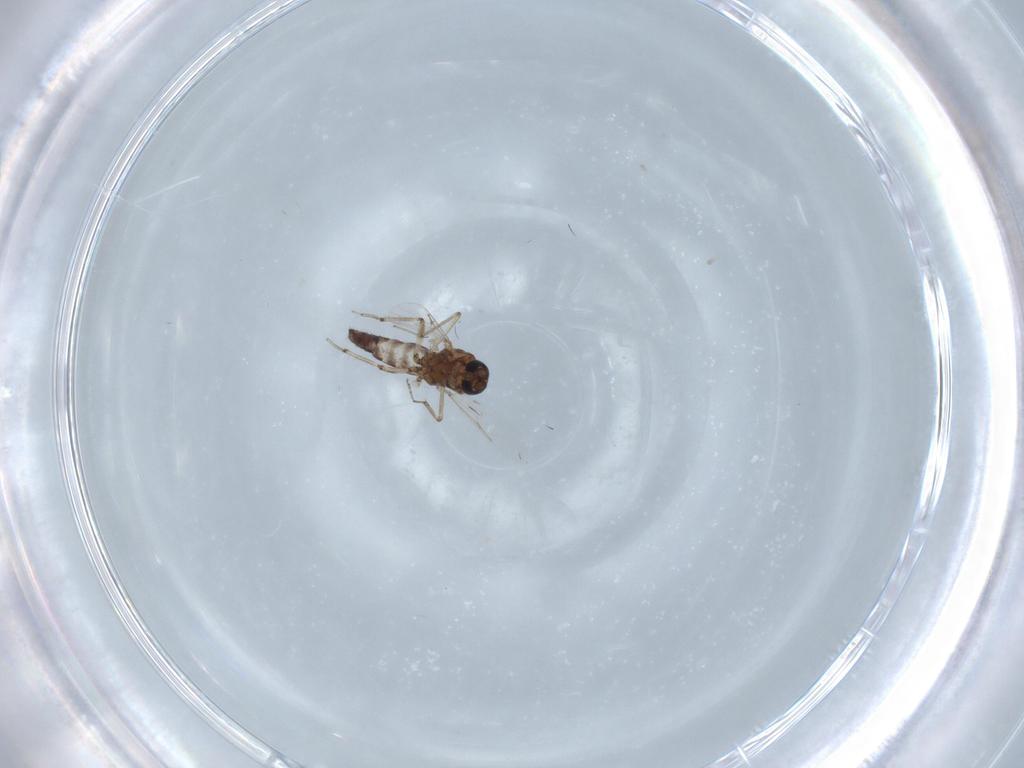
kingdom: Animalia
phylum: Arthropoda
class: Insecta
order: Diptera
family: Ceratopogonidae
